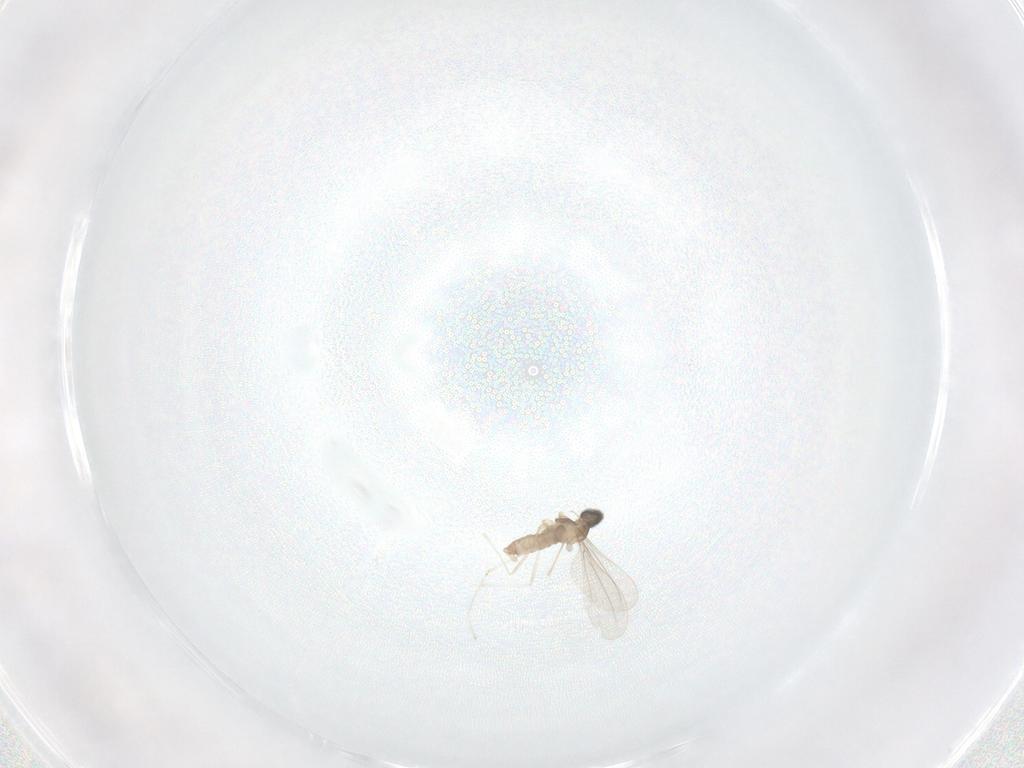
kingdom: Animalia
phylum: Arthropoda
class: Insecta
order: Diptera
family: Sarcophagidae
